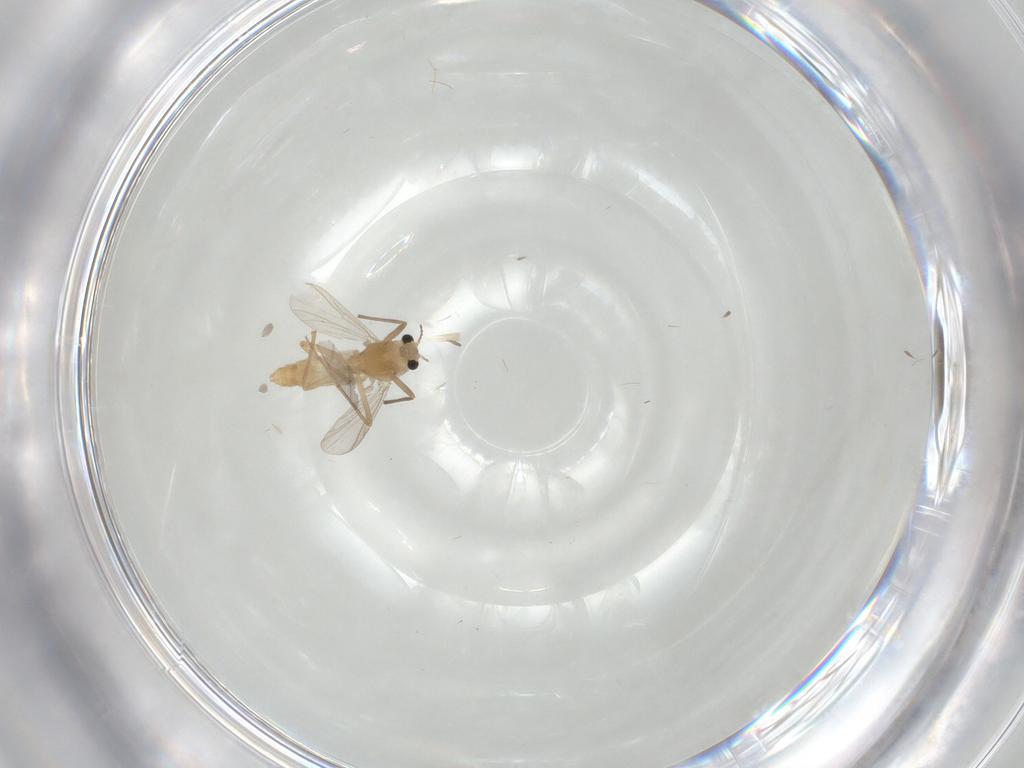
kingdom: Animalia
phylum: Arthropoda
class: Insecta
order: Diptera
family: Chironomidae
